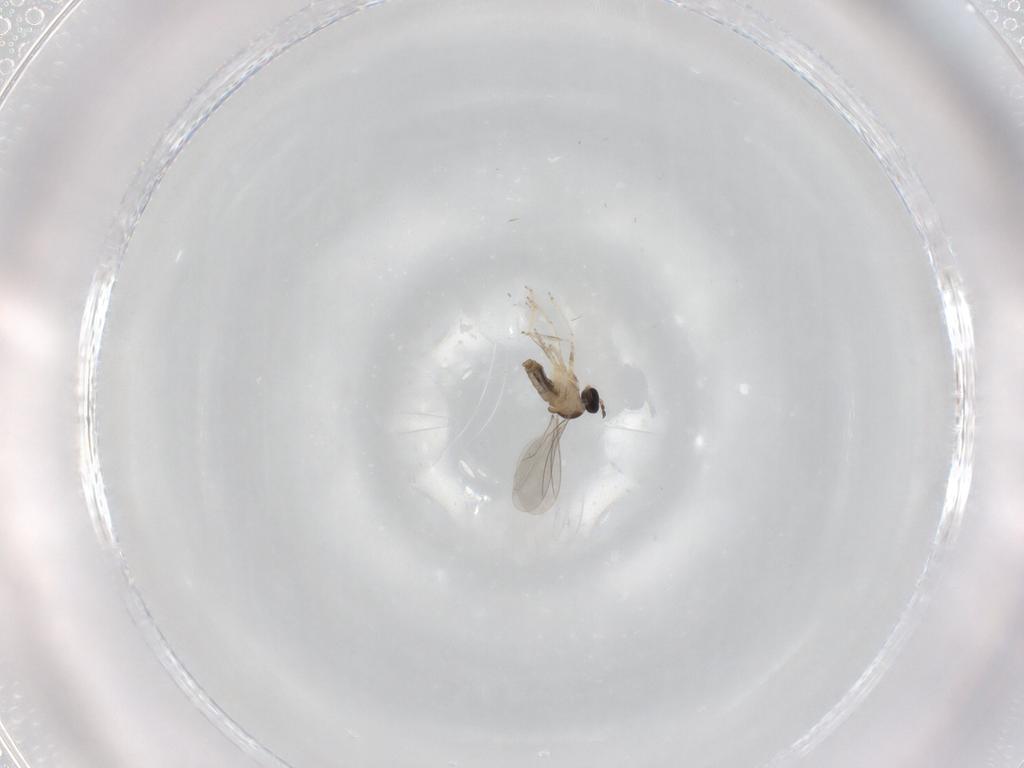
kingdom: Animalia
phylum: Arthropoda
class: Insecta
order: Diptera
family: Cecidomyiidae
